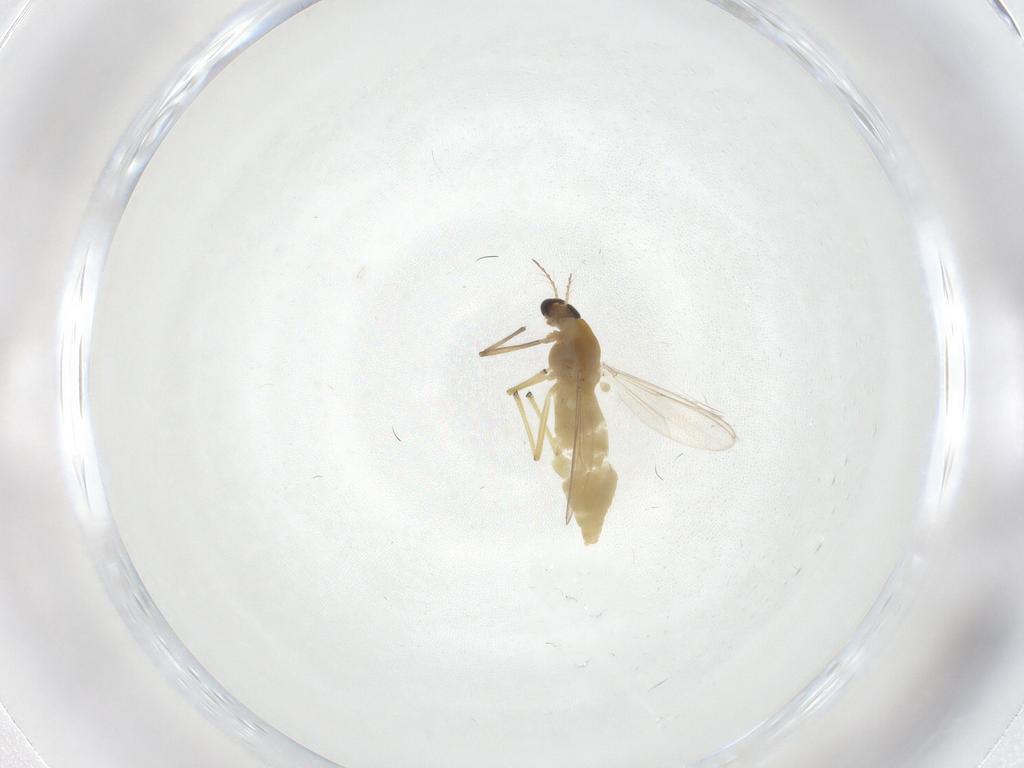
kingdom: Animalia
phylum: Arthropoda
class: Insecta
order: Diptera
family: Chironomidae
